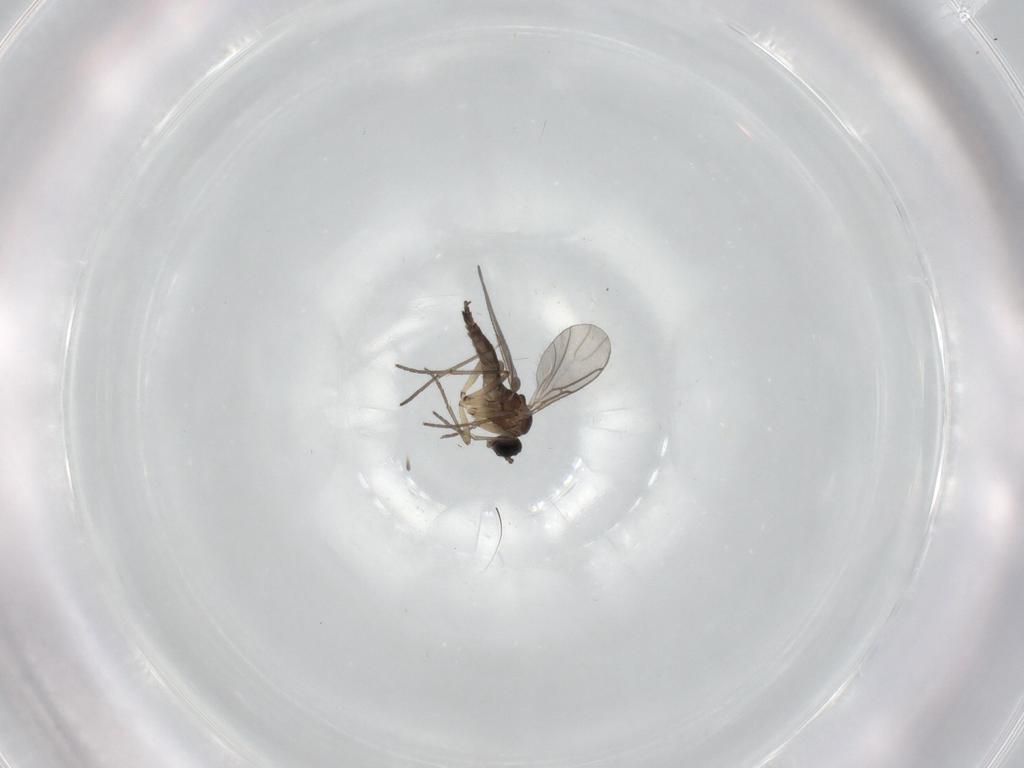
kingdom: Animalia
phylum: Arthropoda
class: Insecta
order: Diptera
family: Sciaridae
